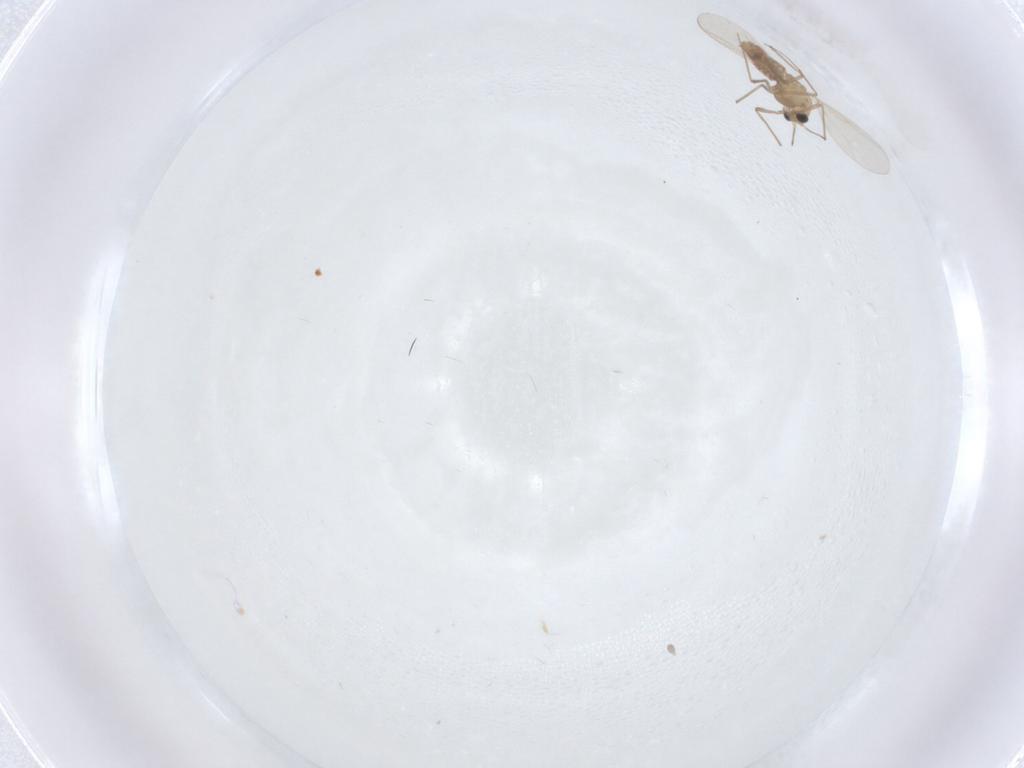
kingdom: Animalia
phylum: Arthropoda
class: Insecta
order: Diptera
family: Chironomidae
